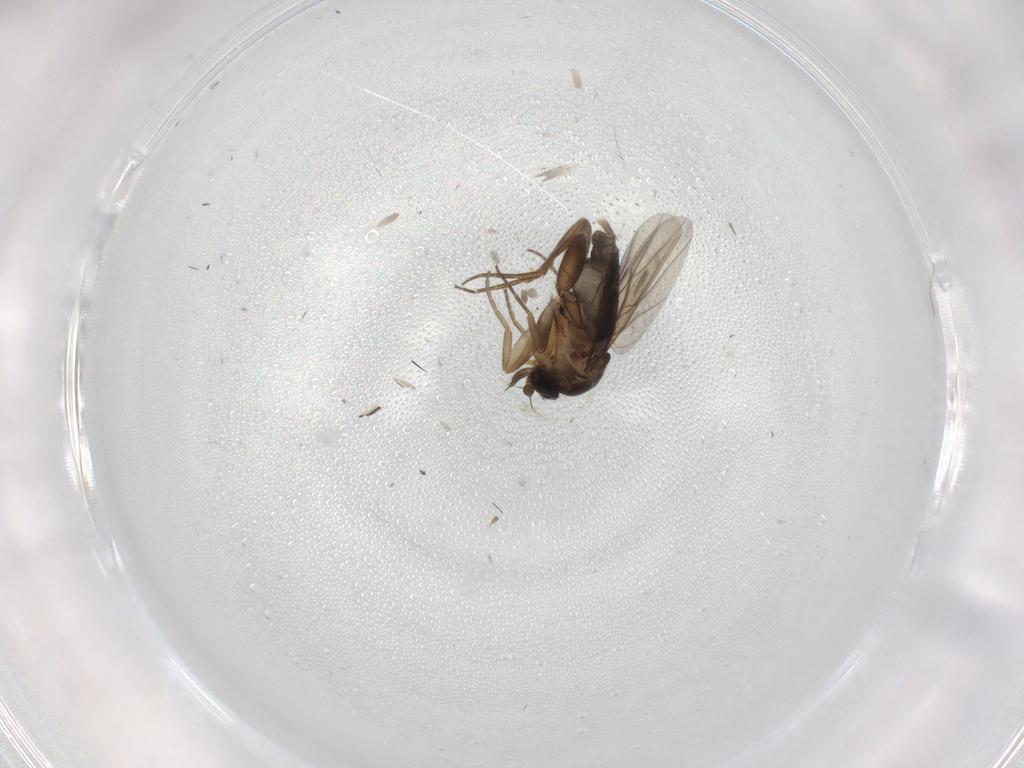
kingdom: Animalia
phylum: Arthropoda
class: Insecta
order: Diptera
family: Phoridae
